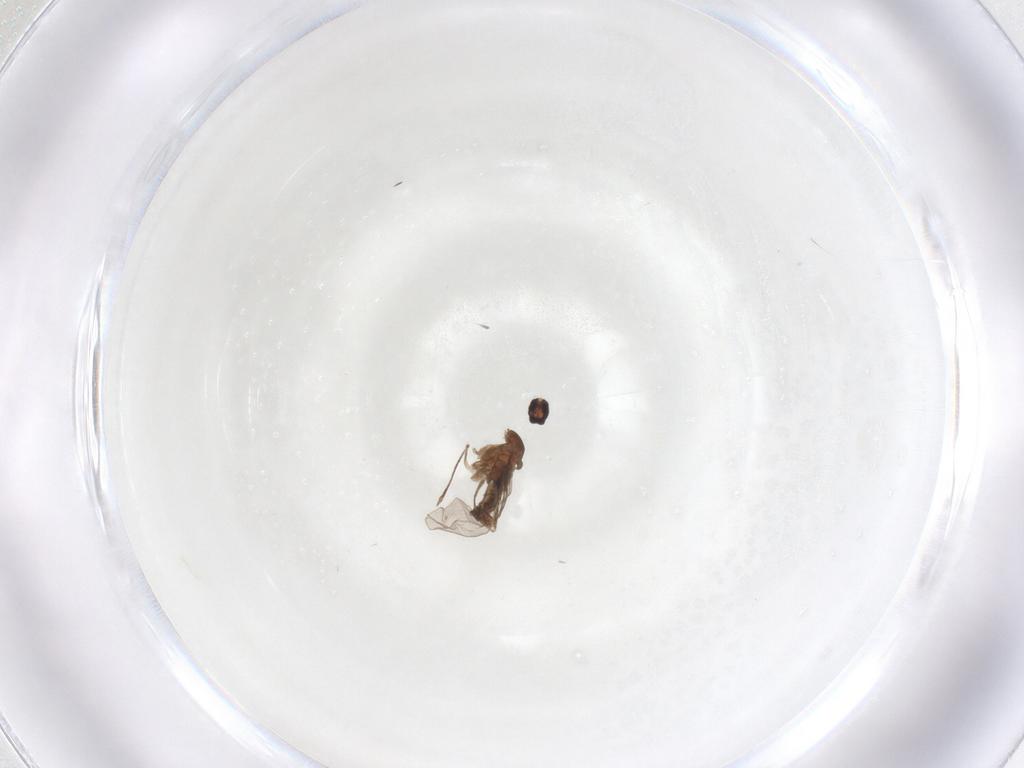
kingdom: Animalia
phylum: Arthropoda
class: Insecta
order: Diptera
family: Cecidomyiidae
